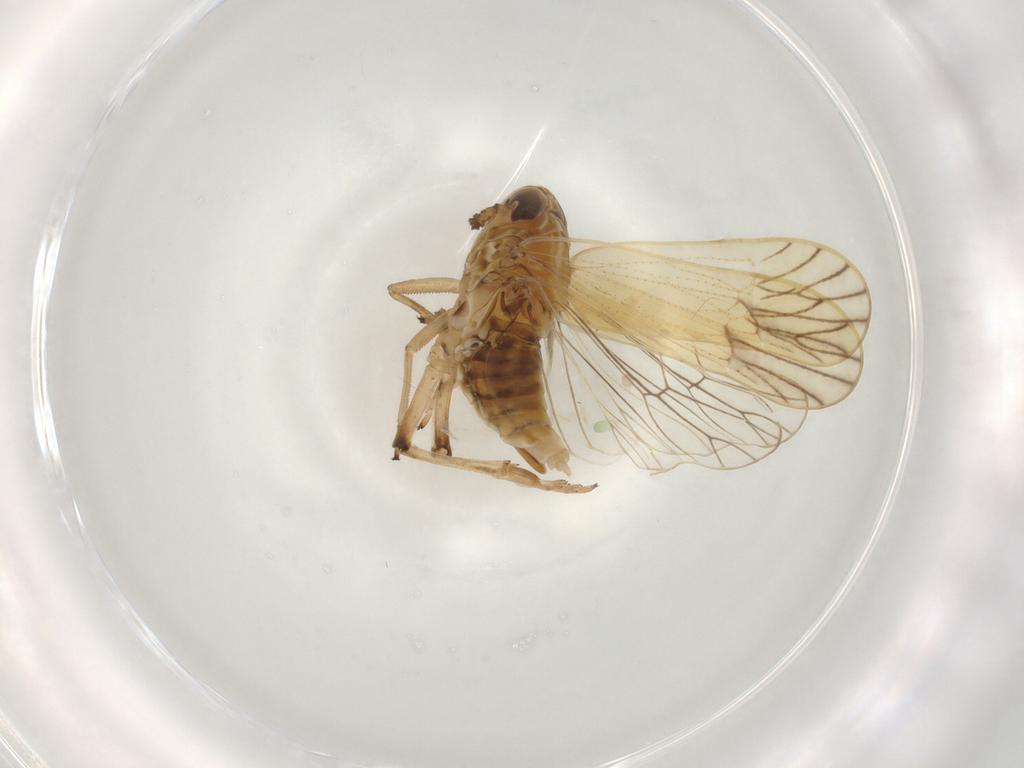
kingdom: Animalia
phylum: Arthropoda
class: Insecta
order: Hemiptera
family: Delphacidae
